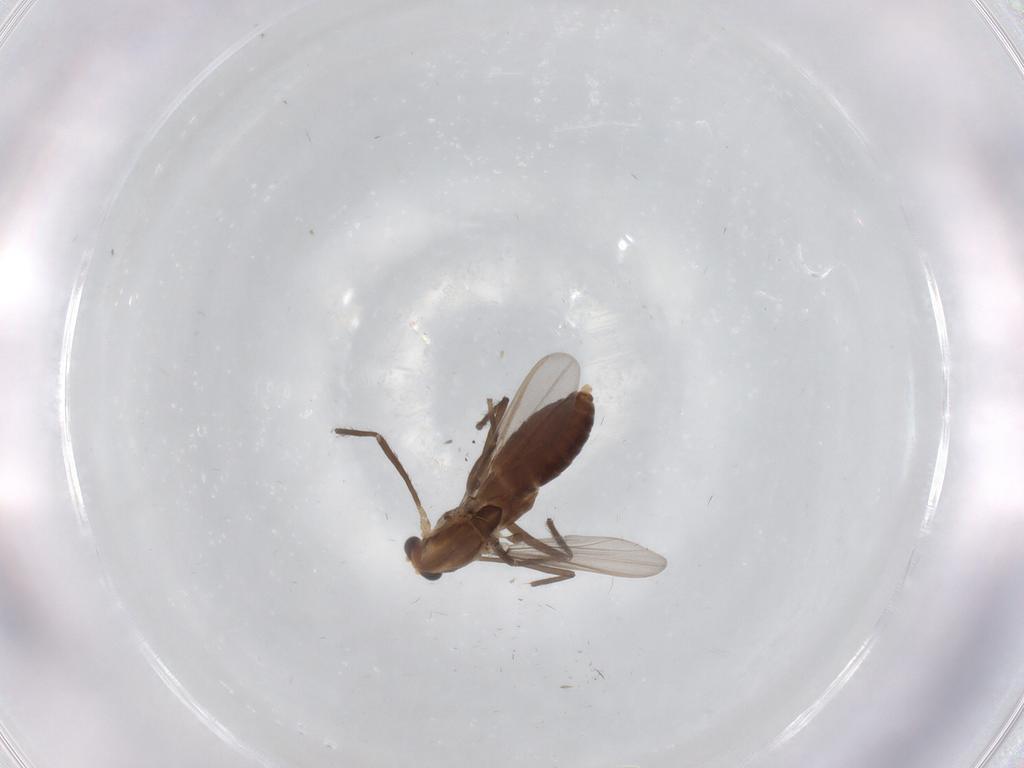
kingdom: Animalia
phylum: Arthropoda
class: Insecta
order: Diptera
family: Chironomidae
